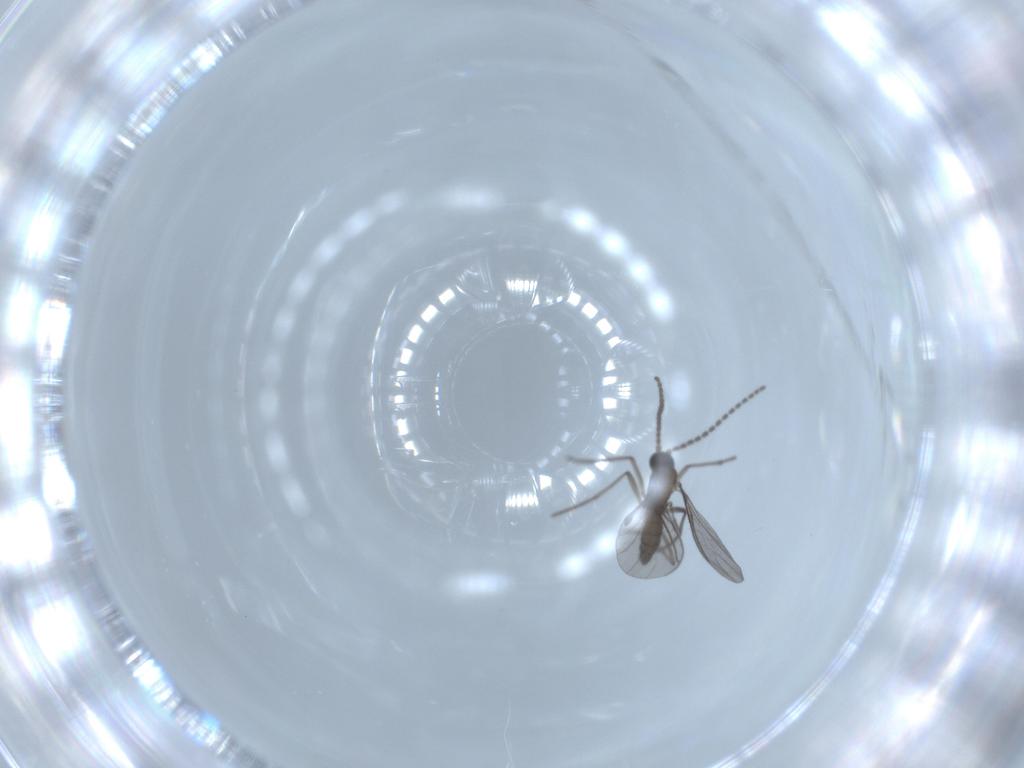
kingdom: Animalia
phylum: Arthropoda
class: Insecta
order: Diptera
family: Sciaridae
